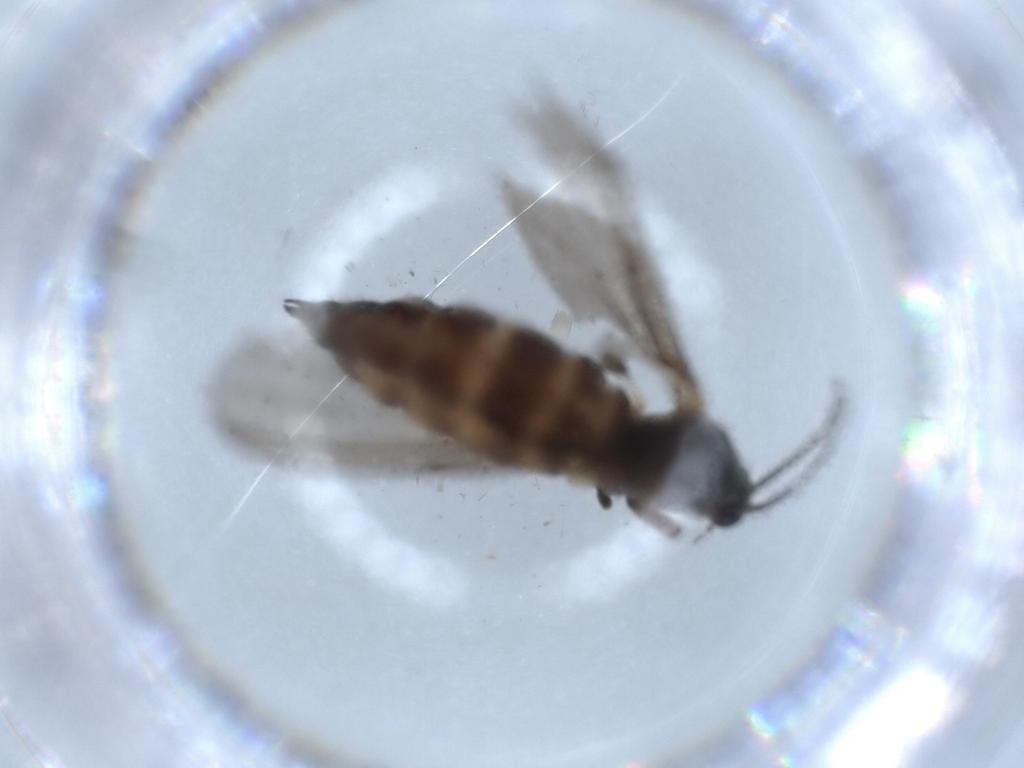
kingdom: Animalia
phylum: Arthropoda
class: Insecta
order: Diptera
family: Sciaridae
